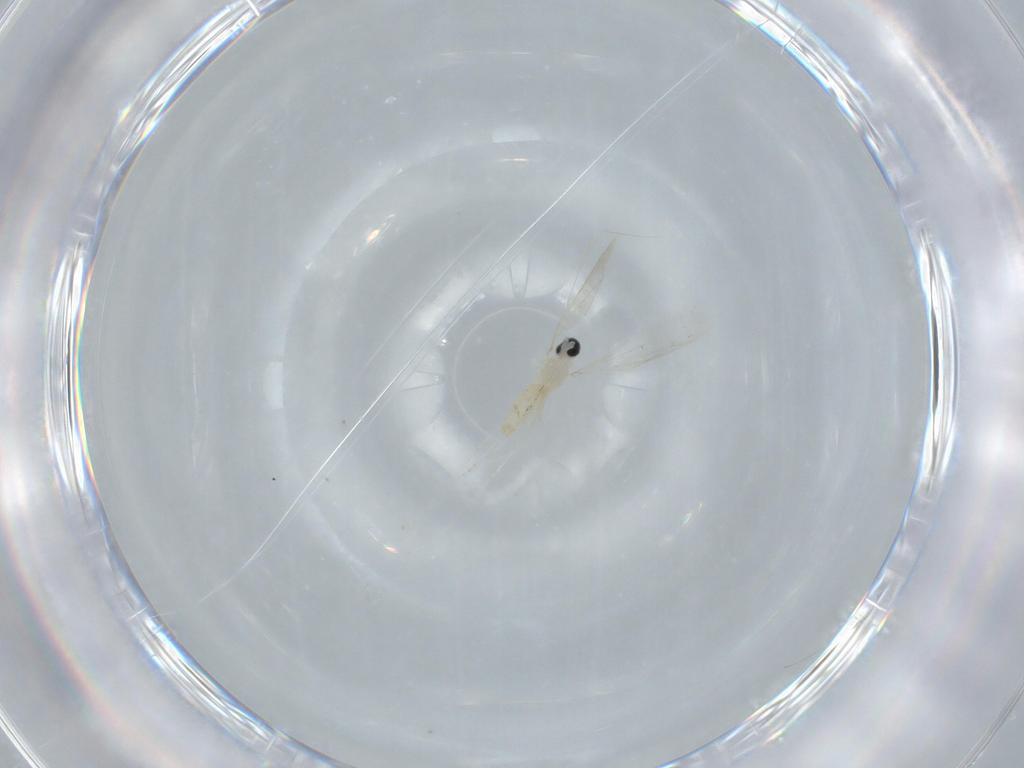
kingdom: Animalia
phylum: Arthropoda
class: Insecta
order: Diptera
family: Cecidomyiidae
